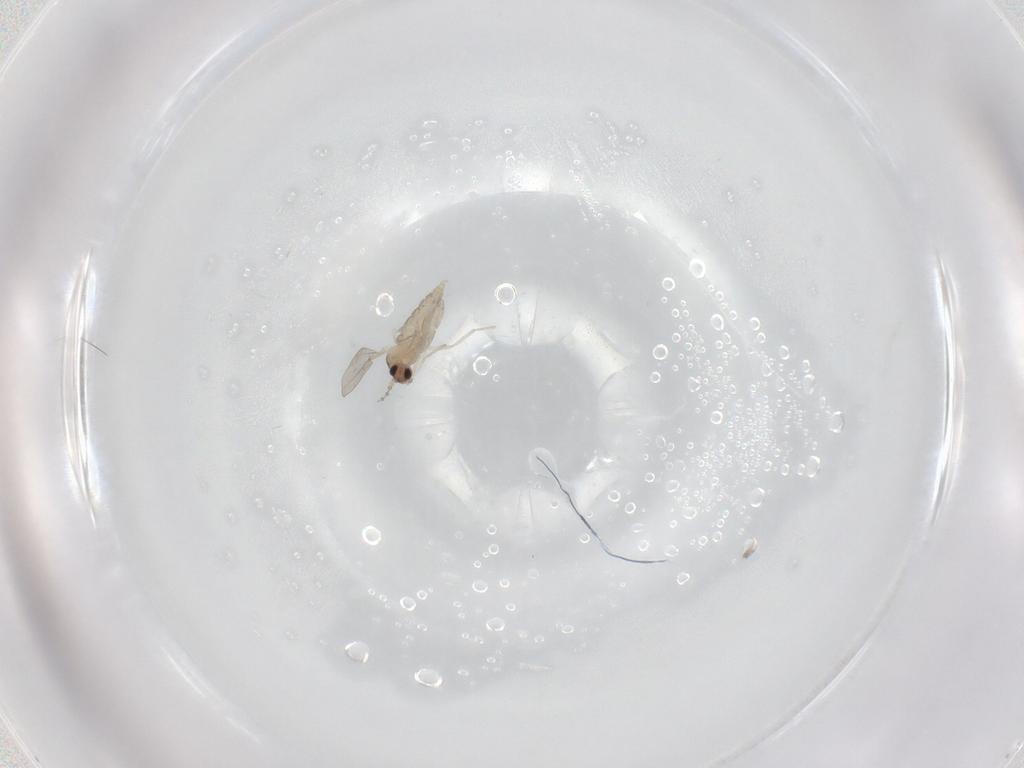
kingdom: Animalia
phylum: Arthropoda
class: Insecta
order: Diptera
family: Cecidomyiidae
